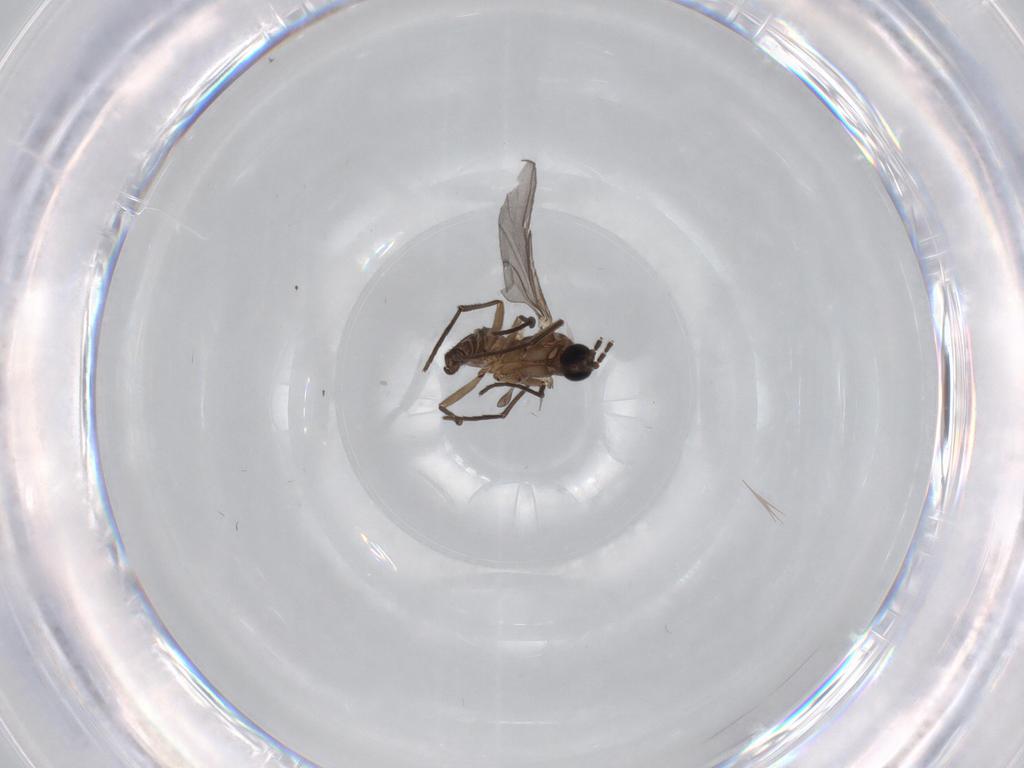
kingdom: Animalia
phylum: Arthropoda
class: Insecta
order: Diptera
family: Sciaridae
